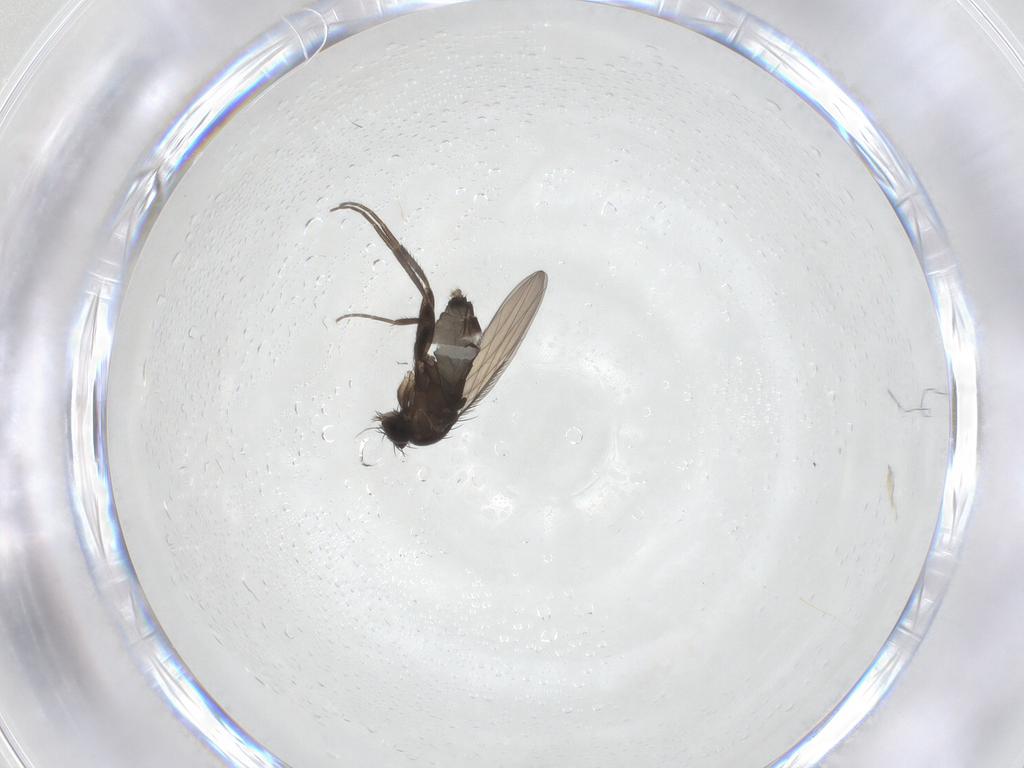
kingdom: Animalia
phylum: Arthropoda
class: Insecta
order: Diptera
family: Phoridae
